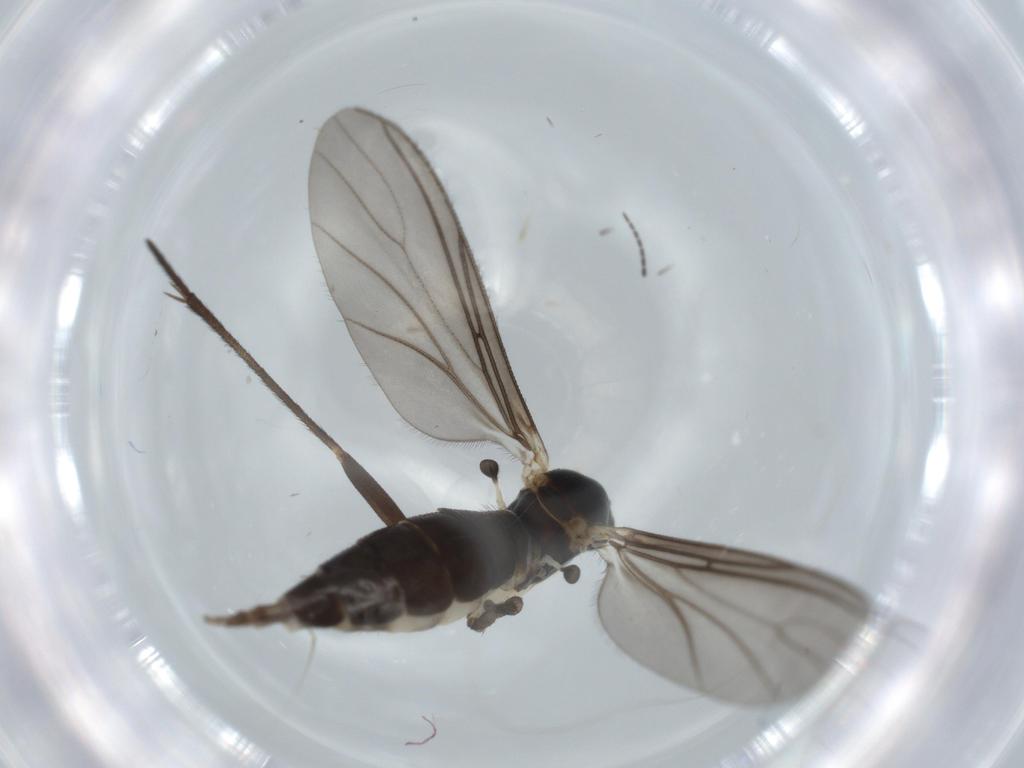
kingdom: Animalia
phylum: Arthropoda
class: Insecta
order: Diptera
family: Sciaridae
